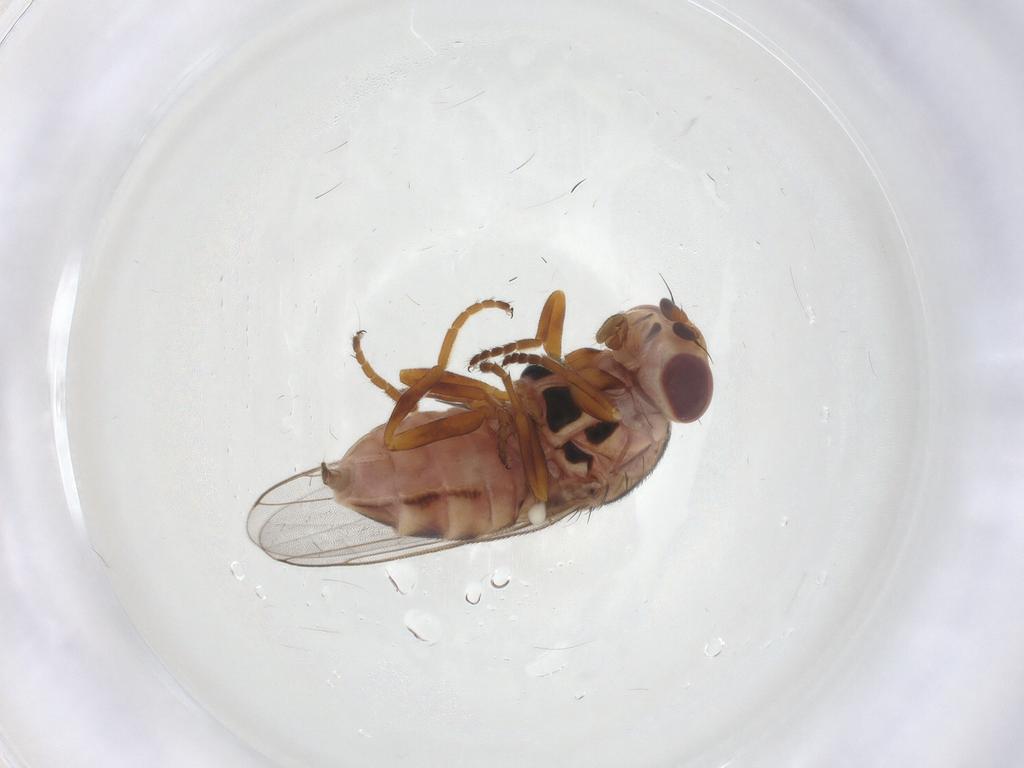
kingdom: Animalia
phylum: Arthropoda
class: Insecta
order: Diptera
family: Chloropidae
